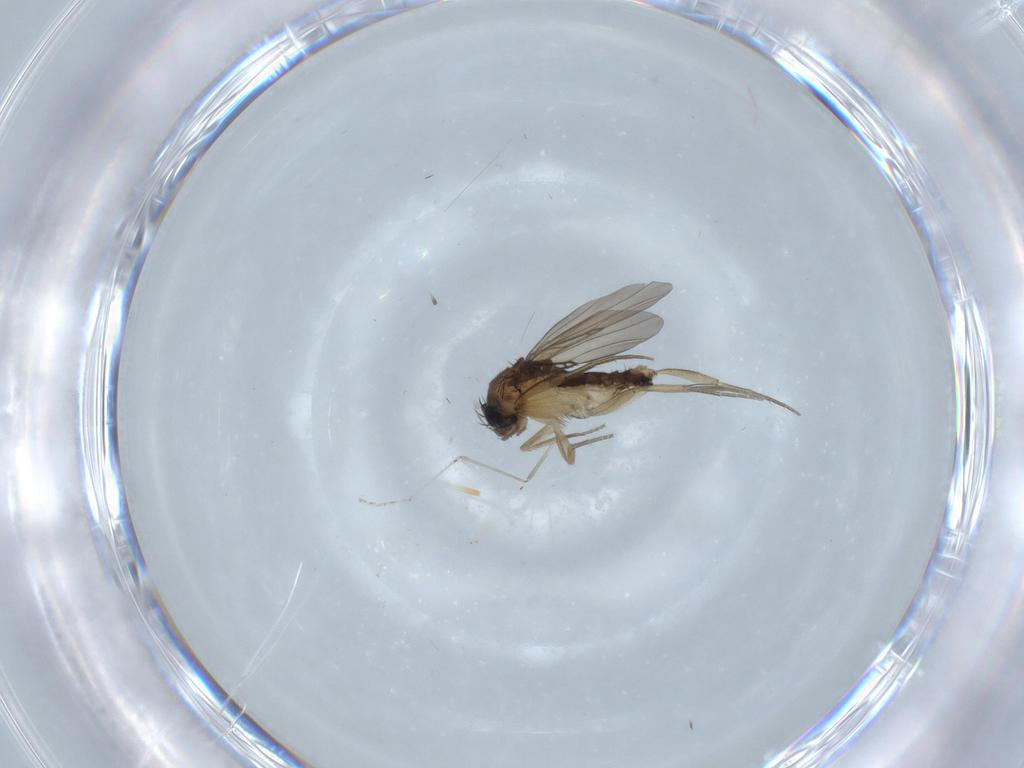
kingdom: Animalia
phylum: Arthropoda
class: Insecta
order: Diptera
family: Phoridae
